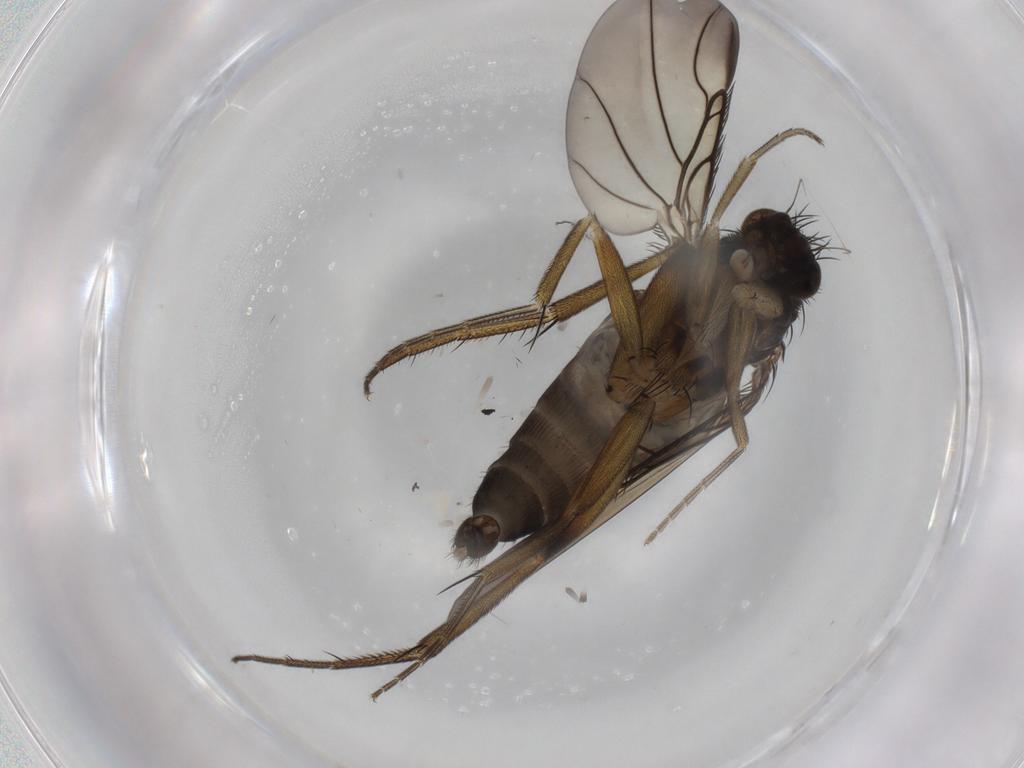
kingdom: Animalia
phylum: Arthropoda
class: Insecta
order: Diptera
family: Phoridae
